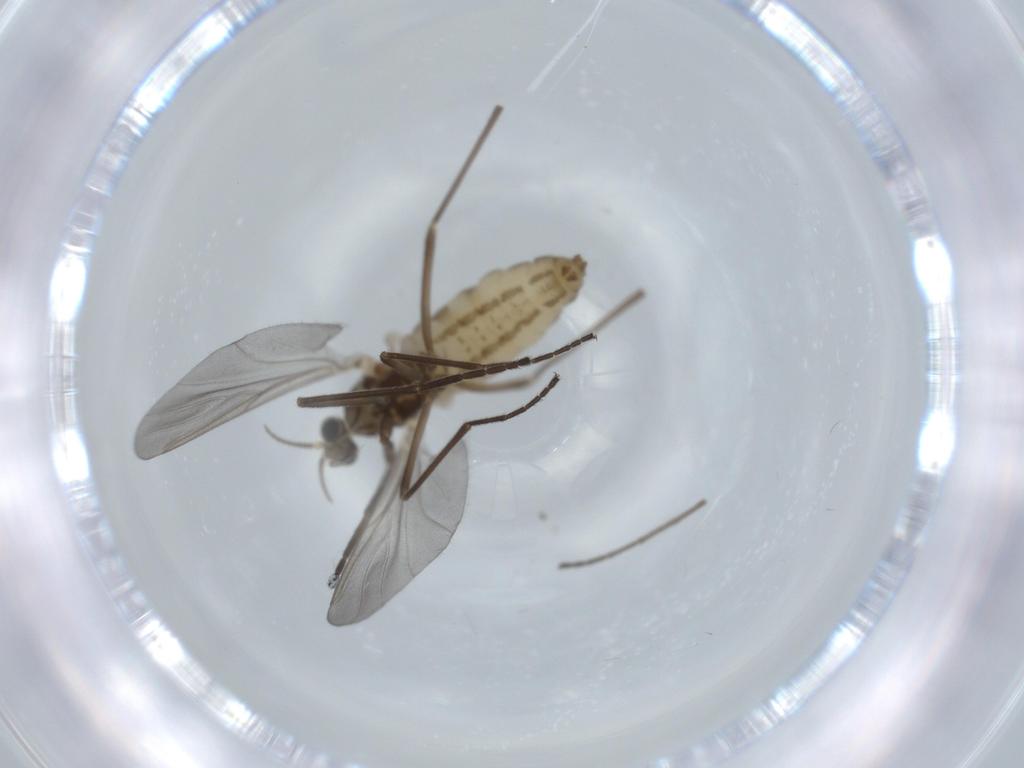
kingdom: Animalia
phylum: Arthropoda
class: Insecta
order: Diptera
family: Cecidomyiidae
